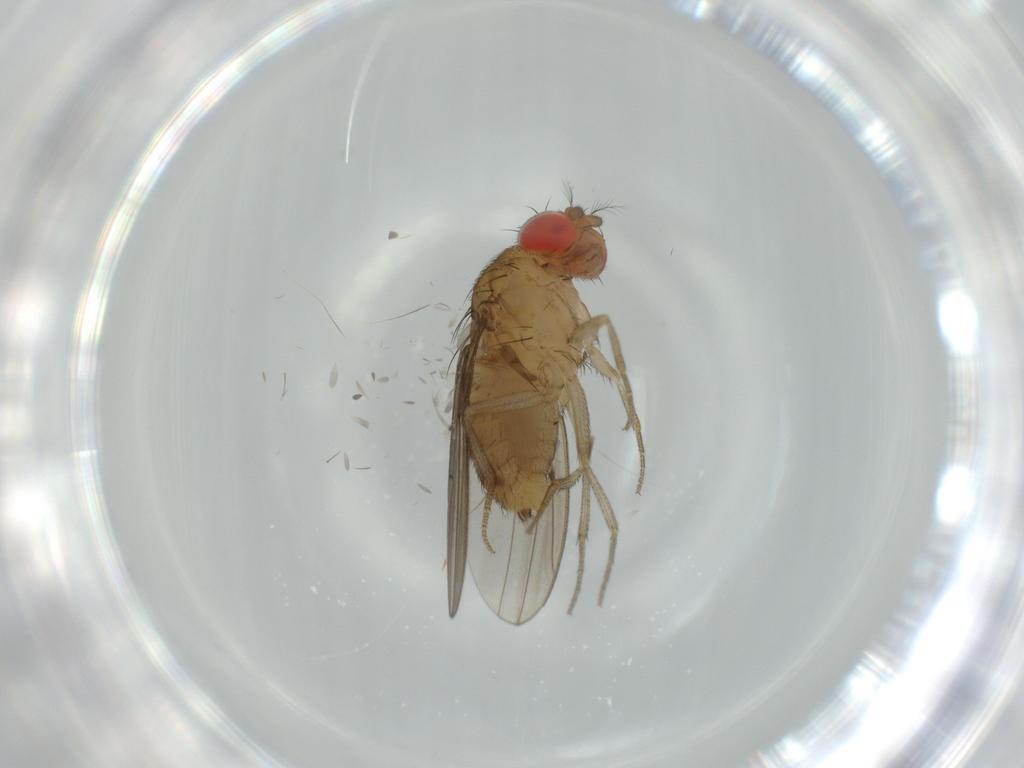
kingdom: Animalia
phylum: Arthropoda
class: Insecta
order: Diptera
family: Drosophilidae
